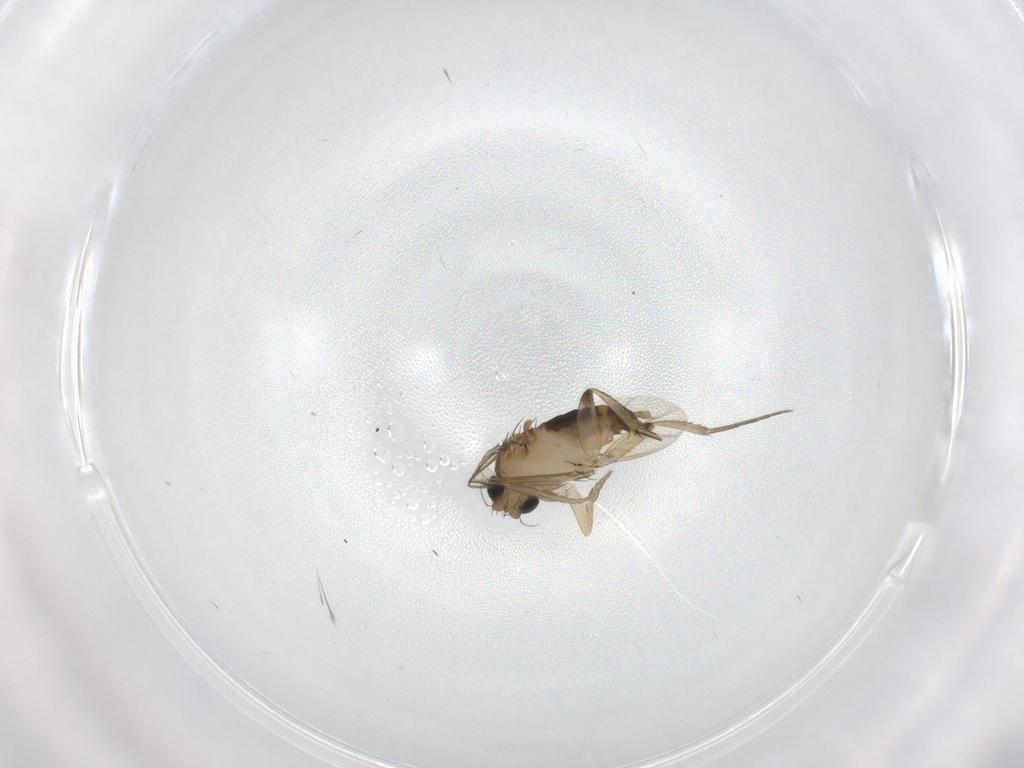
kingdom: Animalia
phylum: Arthropoda
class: Insecta
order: Diptera
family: Phoridae
